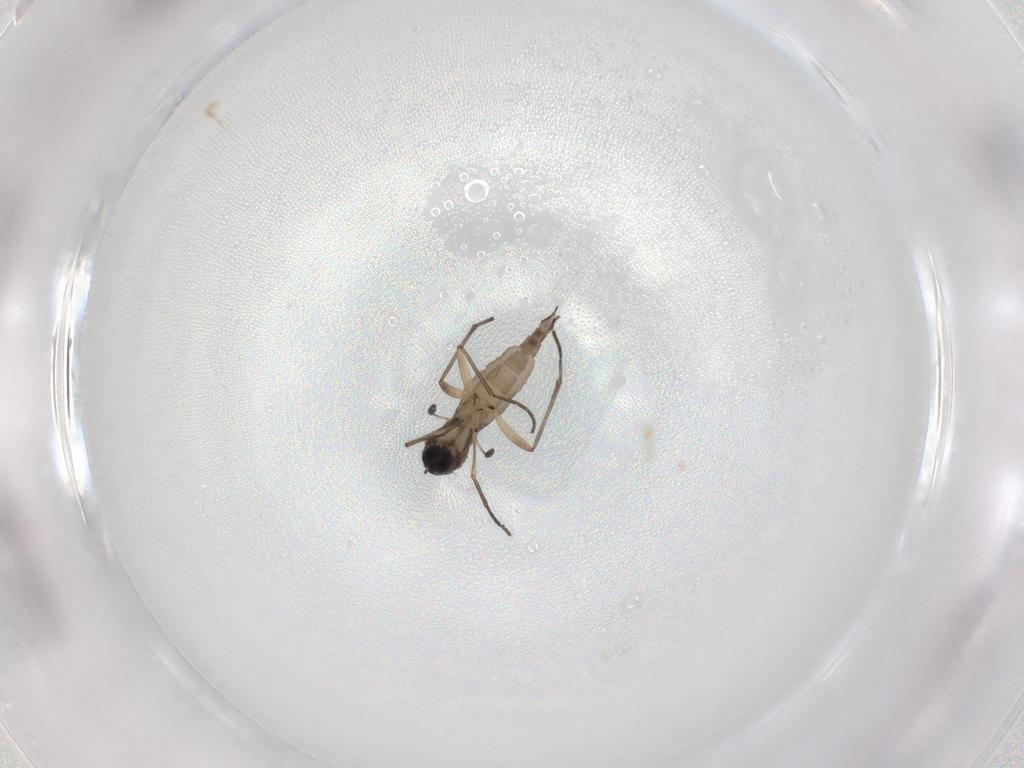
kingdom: Animalia
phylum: Arthropoda
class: Insecta
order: Diptera
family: Sciaridae
